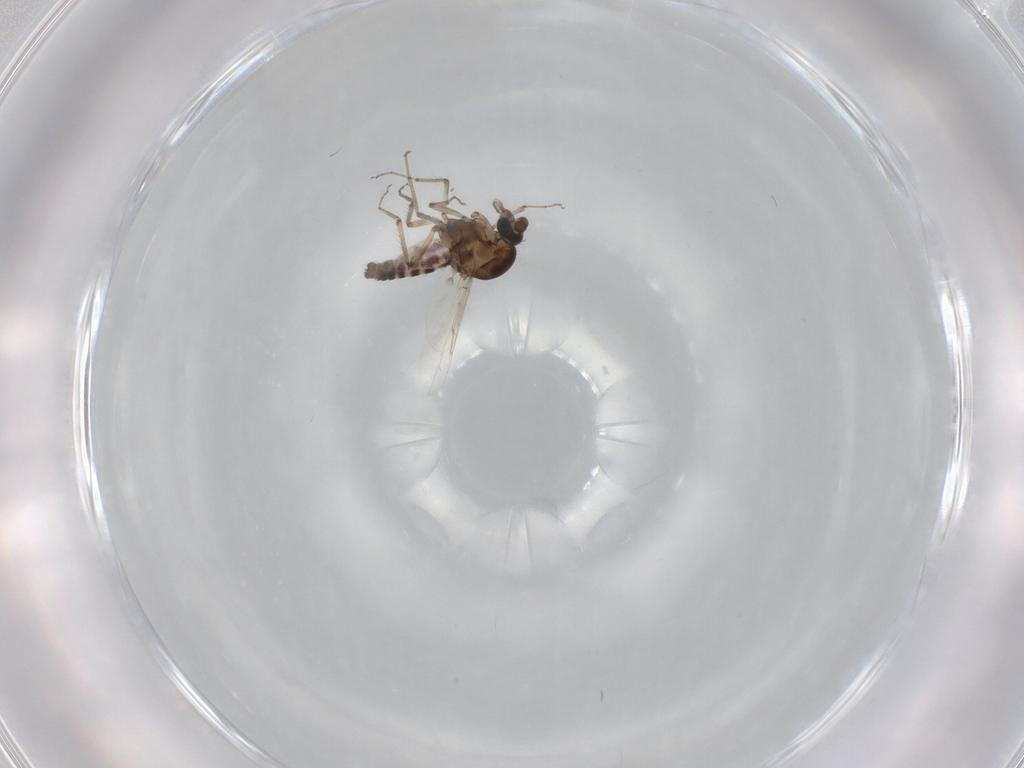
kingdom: Animalia
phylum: Arthropoda
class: Insecta
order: Diptera
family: Ceratopogonidae
